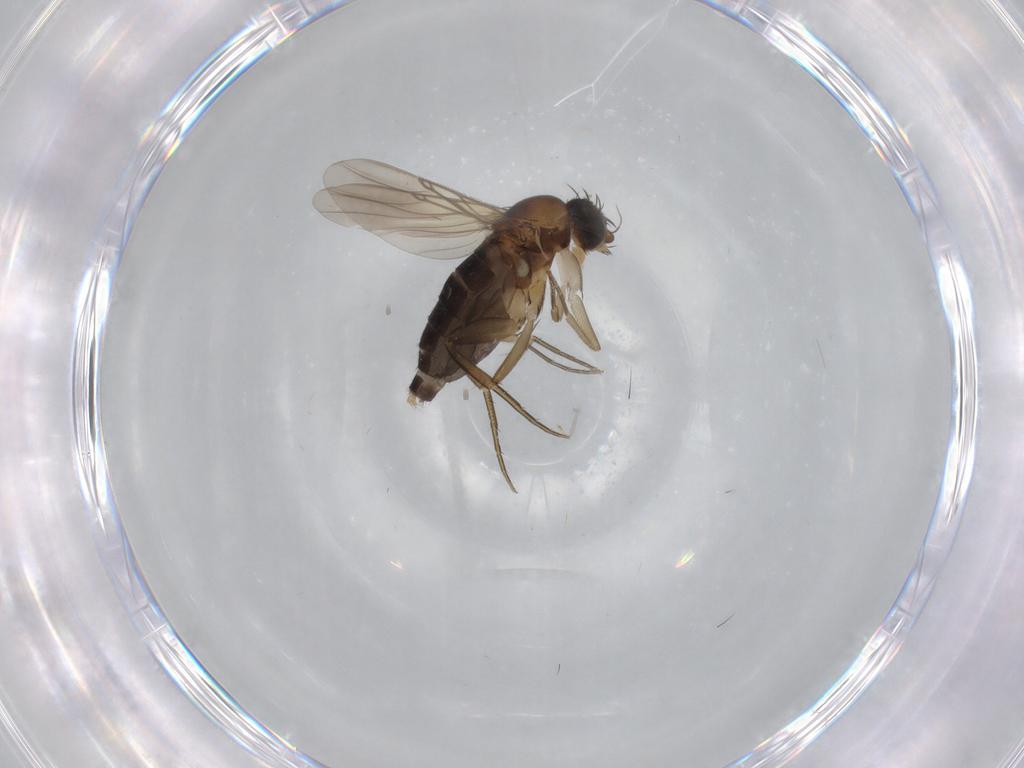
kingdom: Animalia
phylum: Arthropoda
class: Insecta
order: Diptera
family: Phoridae
